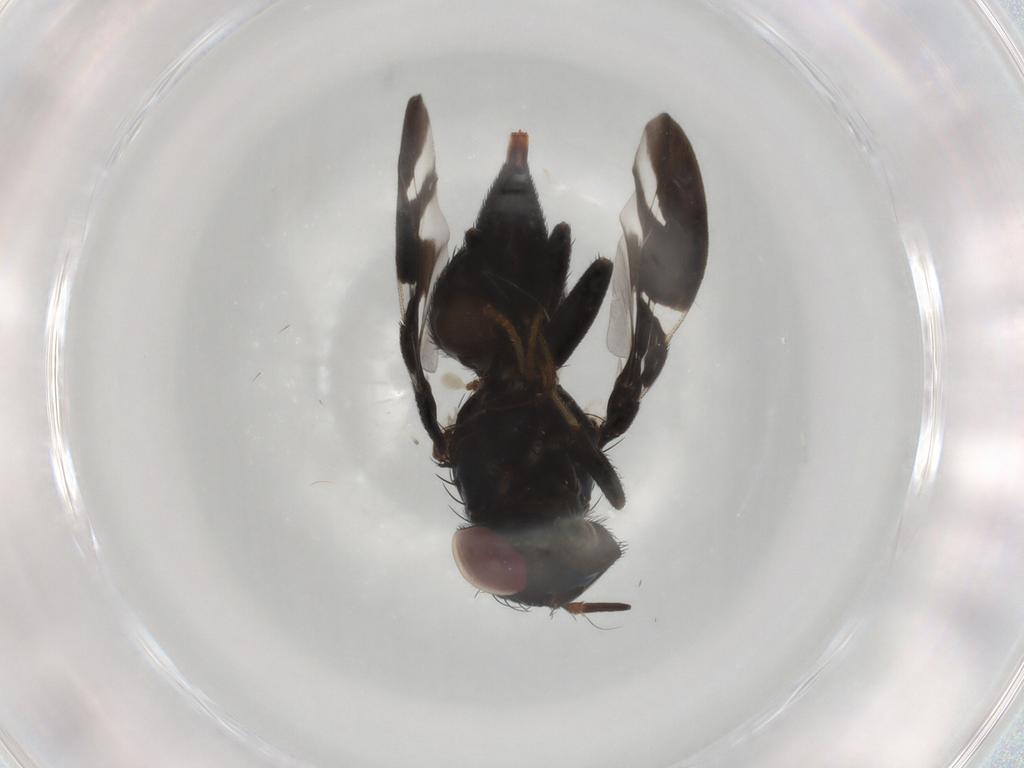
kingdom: Animalia
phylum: Arthropoda
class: Insecta
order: Diptera
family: Tephritidae
